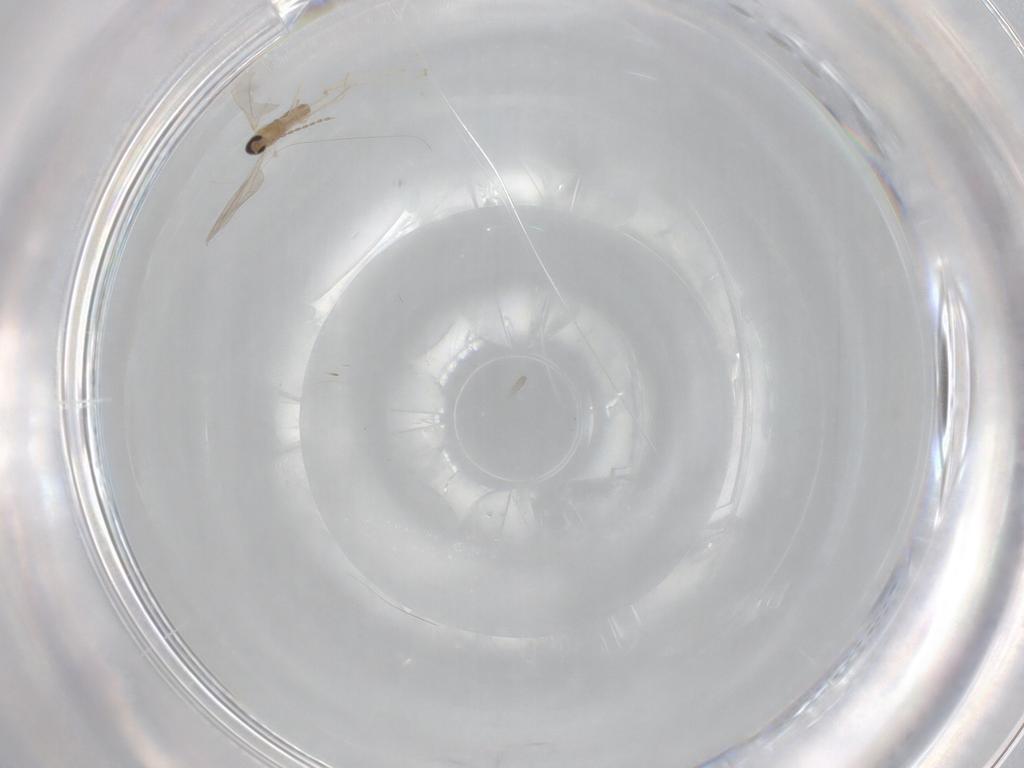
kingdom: Animalia
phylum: Arthropoda
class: Insecta
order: Diptera
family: Cecidomyiidae
